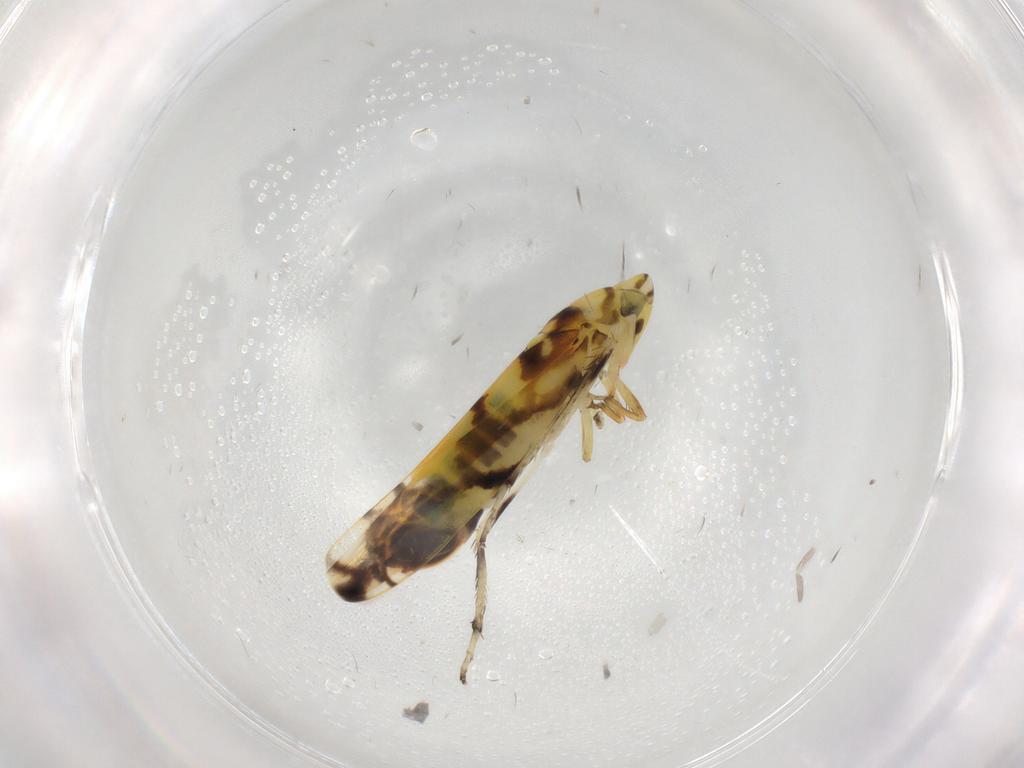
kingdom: Animalia
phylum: Arthropoda
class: Insecta
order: Hemiptera
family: Cicadellidae
